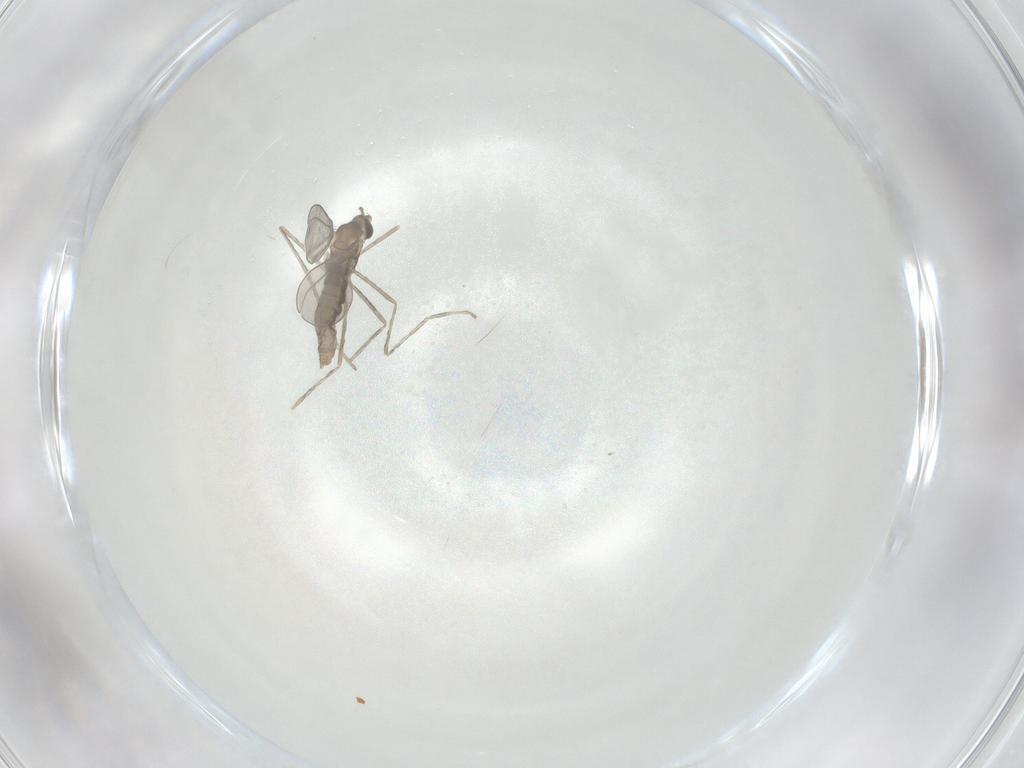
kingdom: Animalia
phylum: Arthropoda
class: Insecta
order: Diptera
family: Cecidomyiidae
